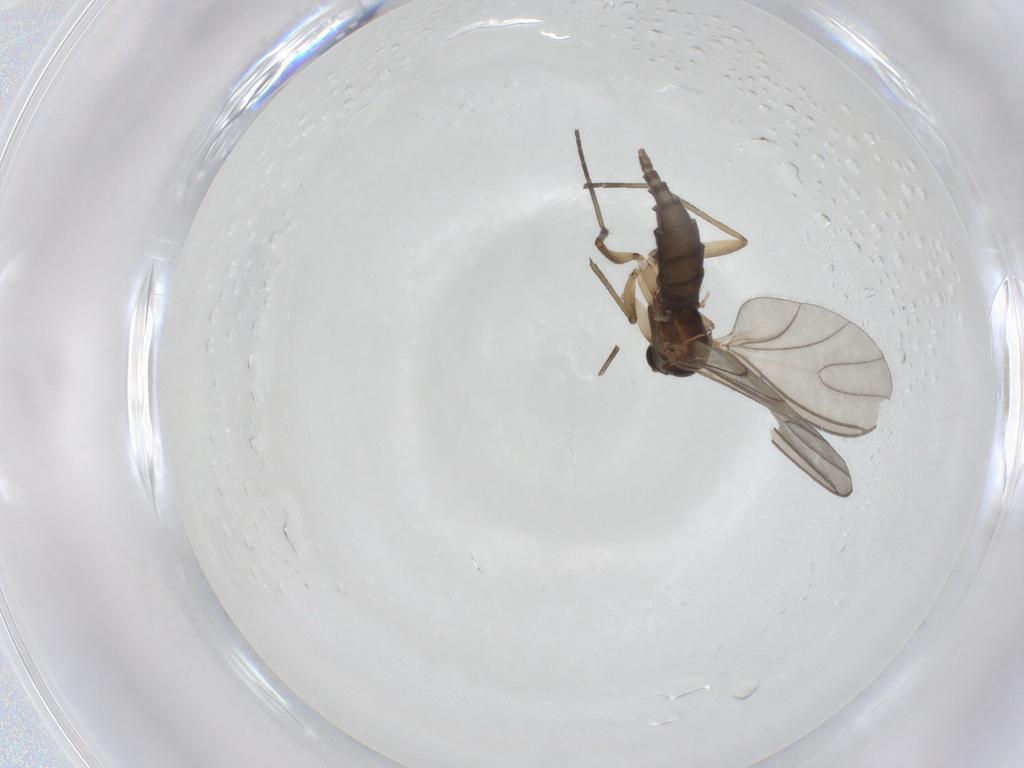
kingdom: Animalia
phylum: Arthropoda
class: Insecta
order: Diptera
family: Sciaridae
